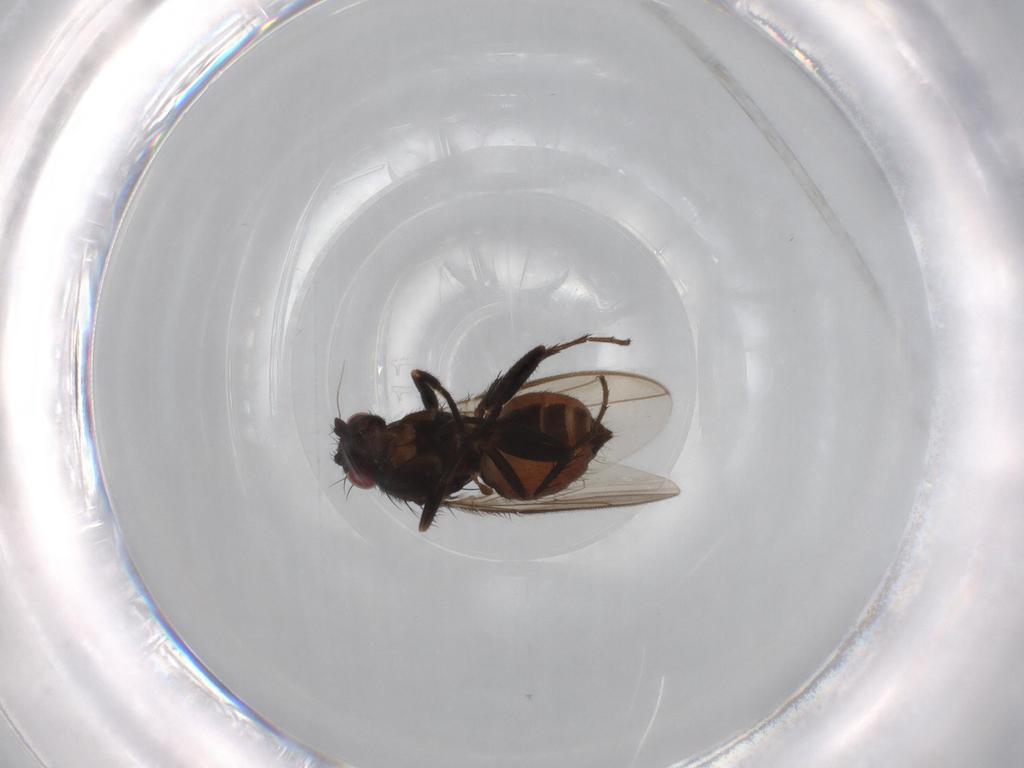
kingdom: Animalia
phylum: Arthropoda
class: Insecta
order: Diptera
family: Sphaeroceridae
